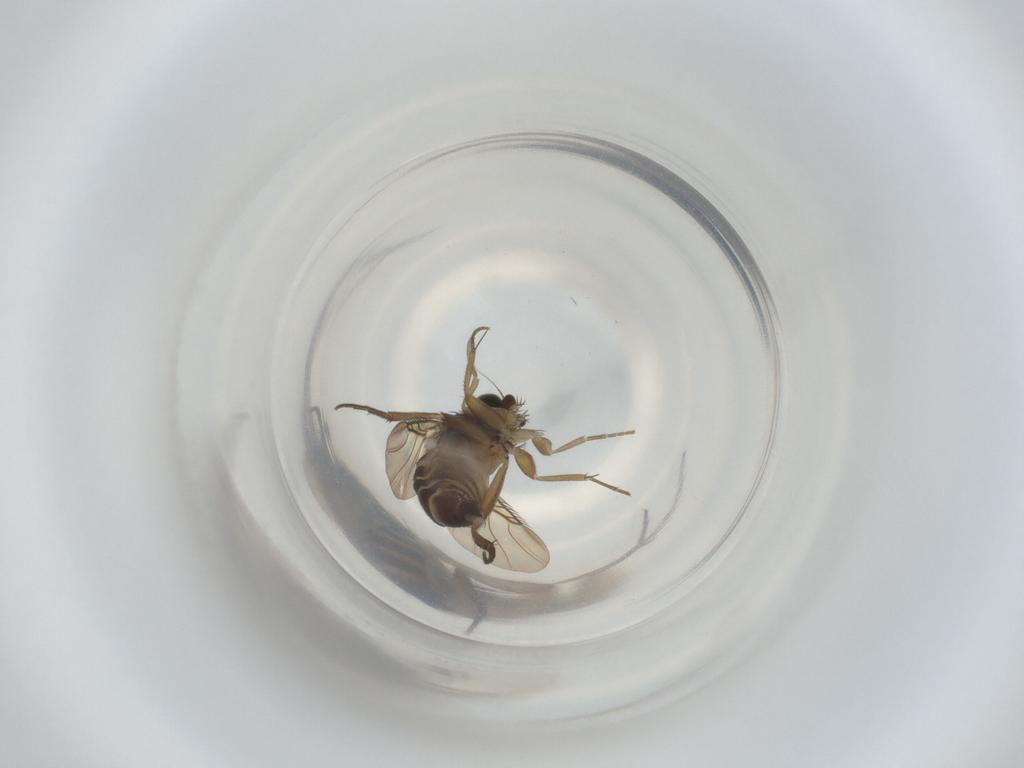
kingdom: Animalia
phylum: Arthropoda
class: Insecta
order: Diptera
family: Phoridae
